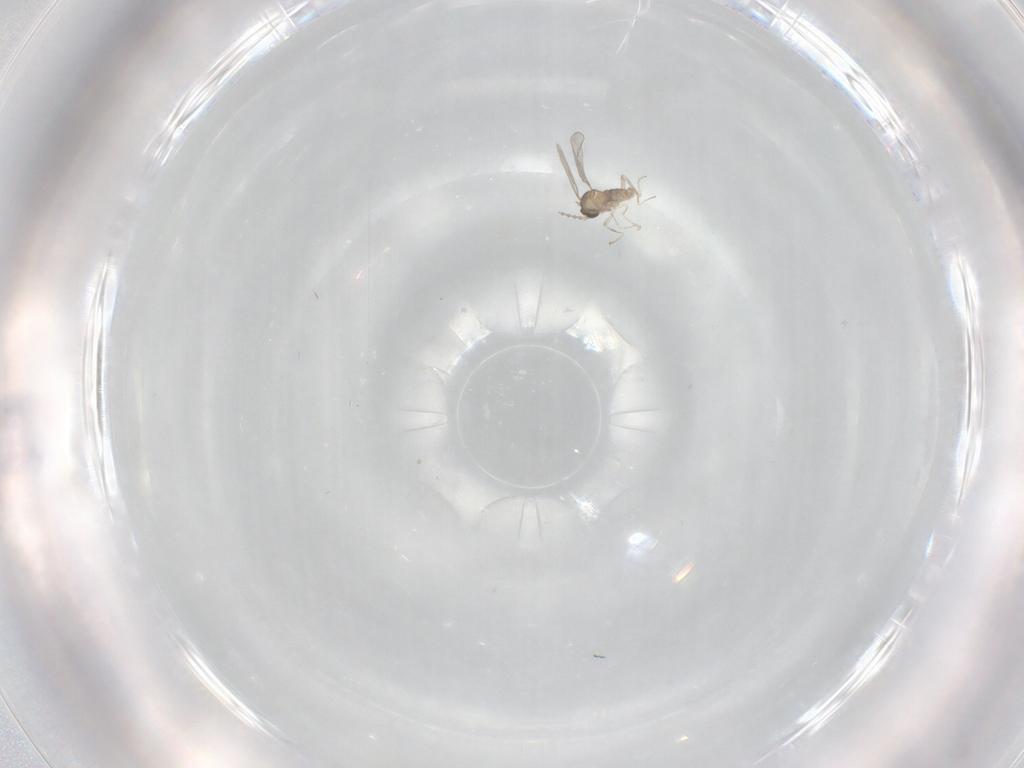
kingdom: Animalia
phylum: Arthropoda
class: Insecta
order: Diptera
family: Cecidomyiidae
